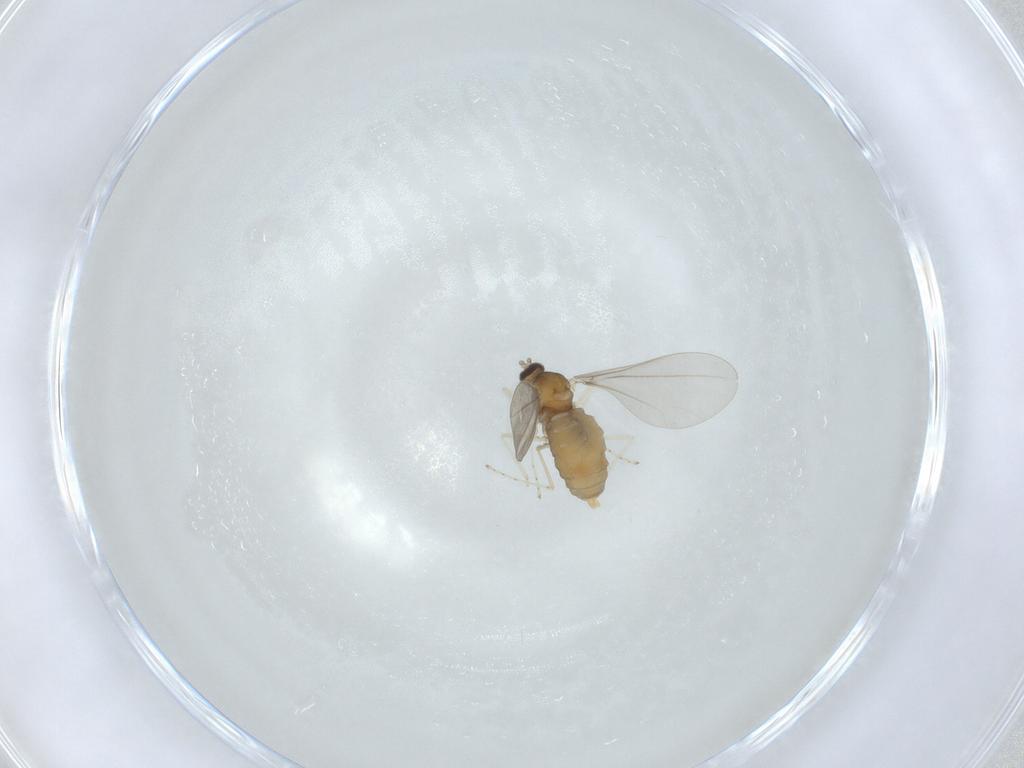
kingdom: Animalia
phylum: Arthropoda
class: Insecta
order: Diptera
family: Cecidomyiidae
